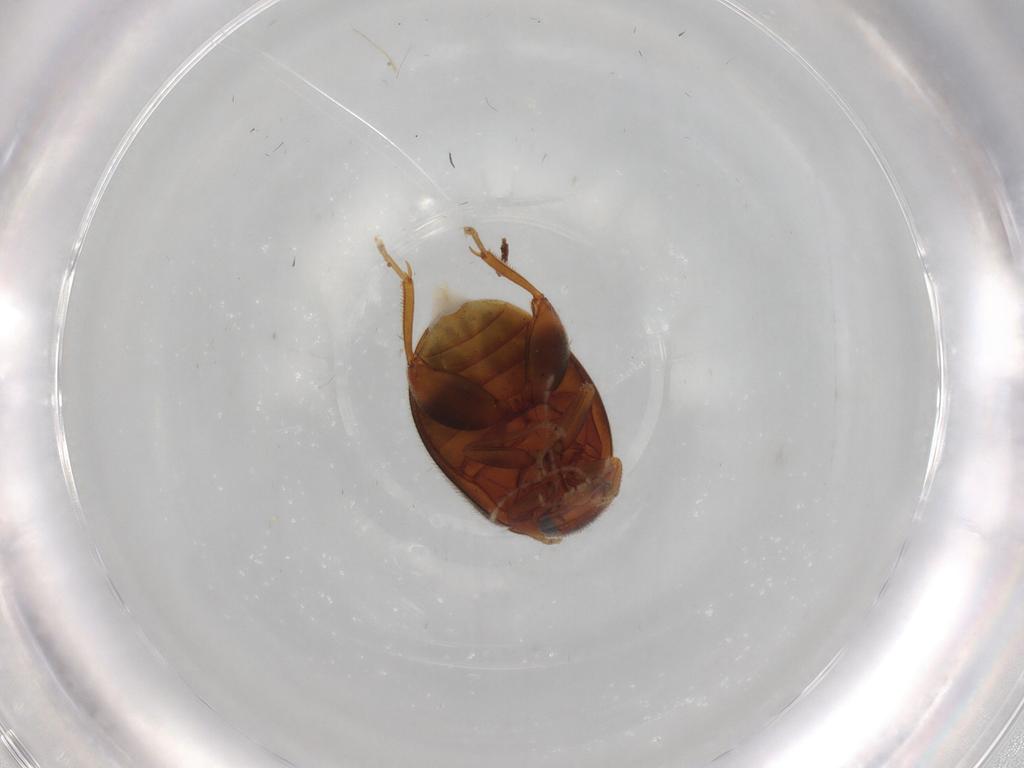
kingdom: Animalia
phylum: Arthropoda
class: Insecta
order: Coleoptera
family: Scirtidae
